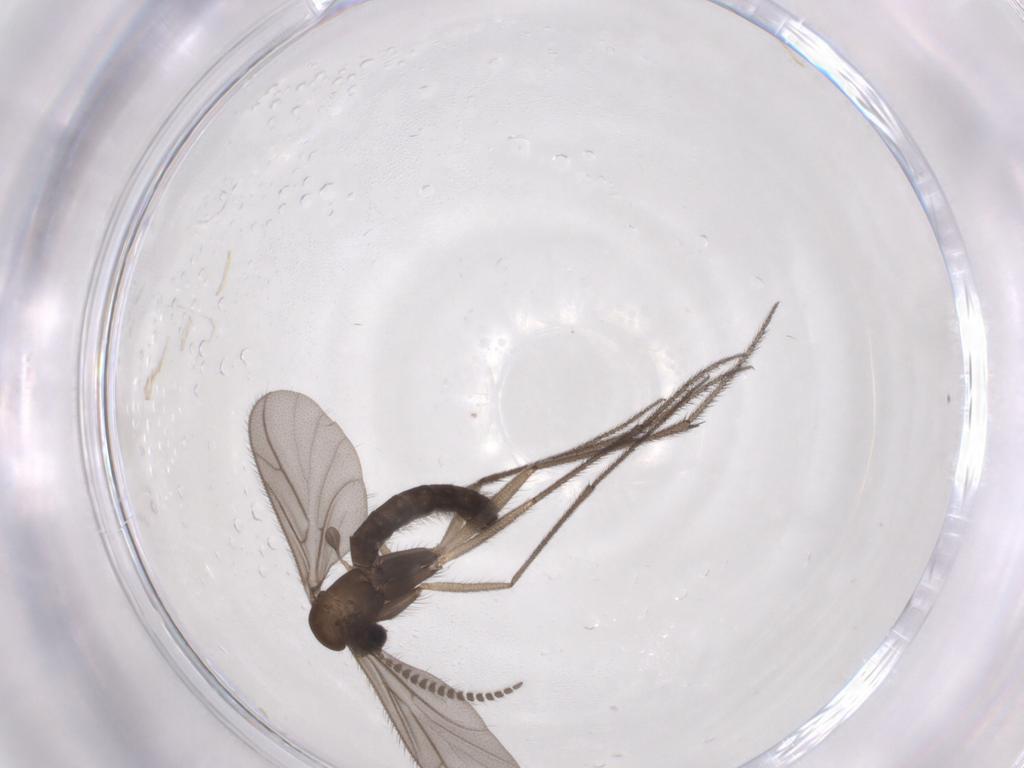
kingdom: Animalia
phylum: Arthropoda
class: Insecta
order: Diptera
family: Ditomyiidae
